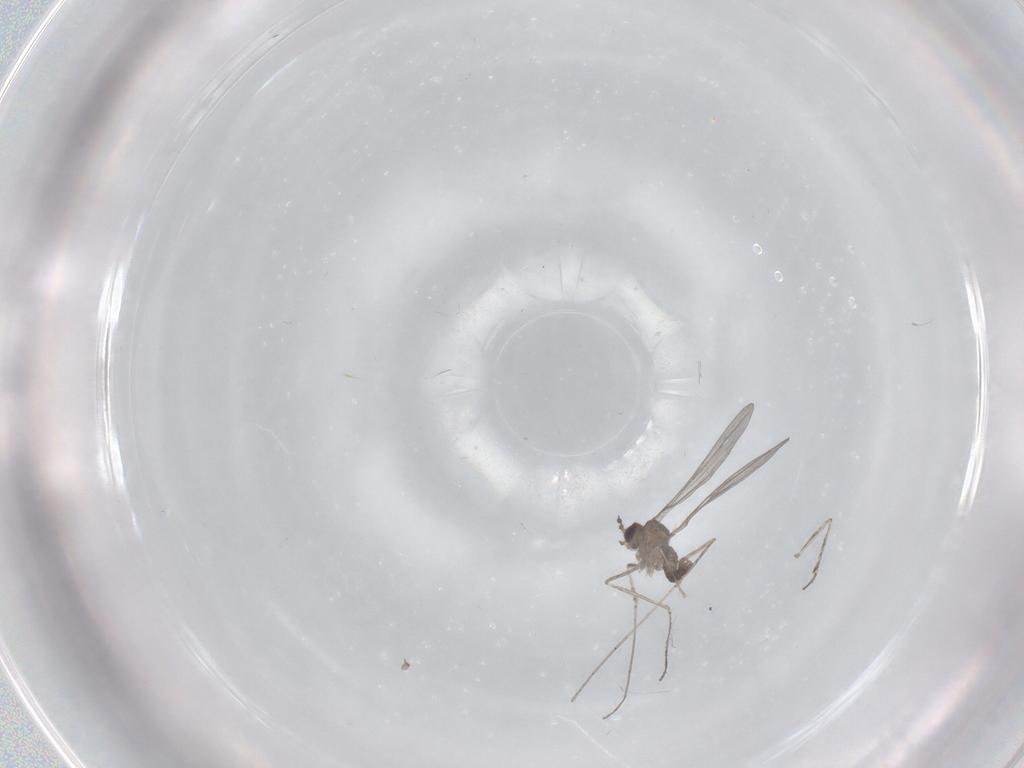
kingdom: Animalia
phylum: Arthropoda
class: Insecta
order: Diptera
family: Cecidomyiidae
